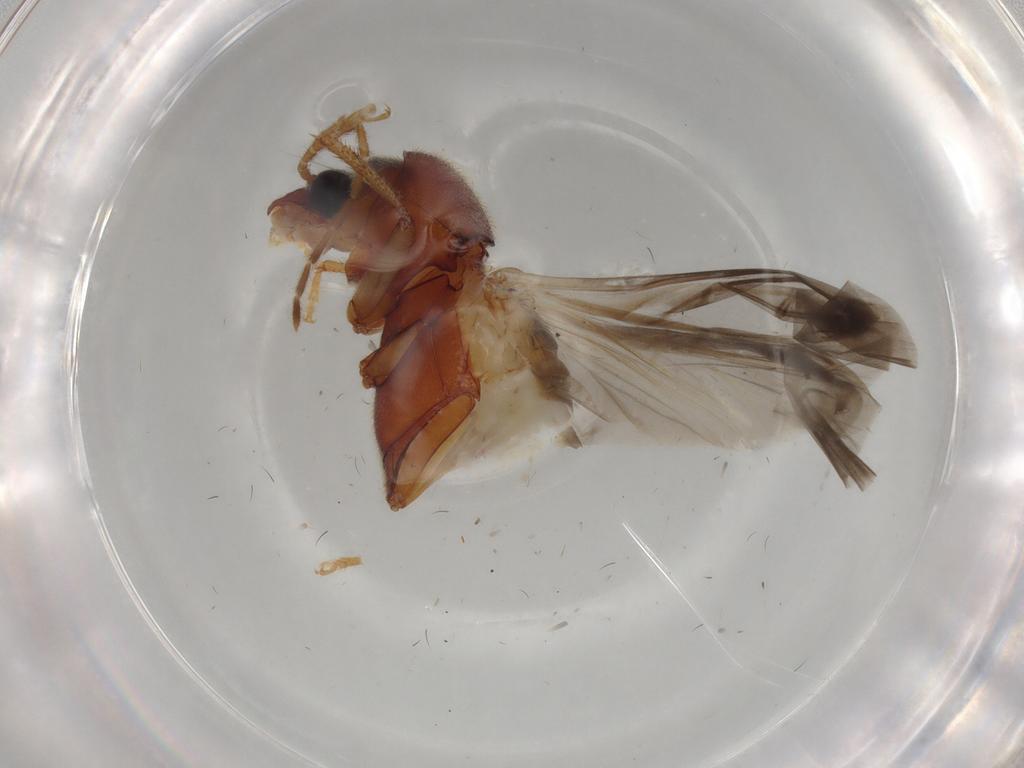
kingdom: Animalia
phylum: Arthropoda
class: Insecta
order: Coleoptera
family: Ptilodactylidae
